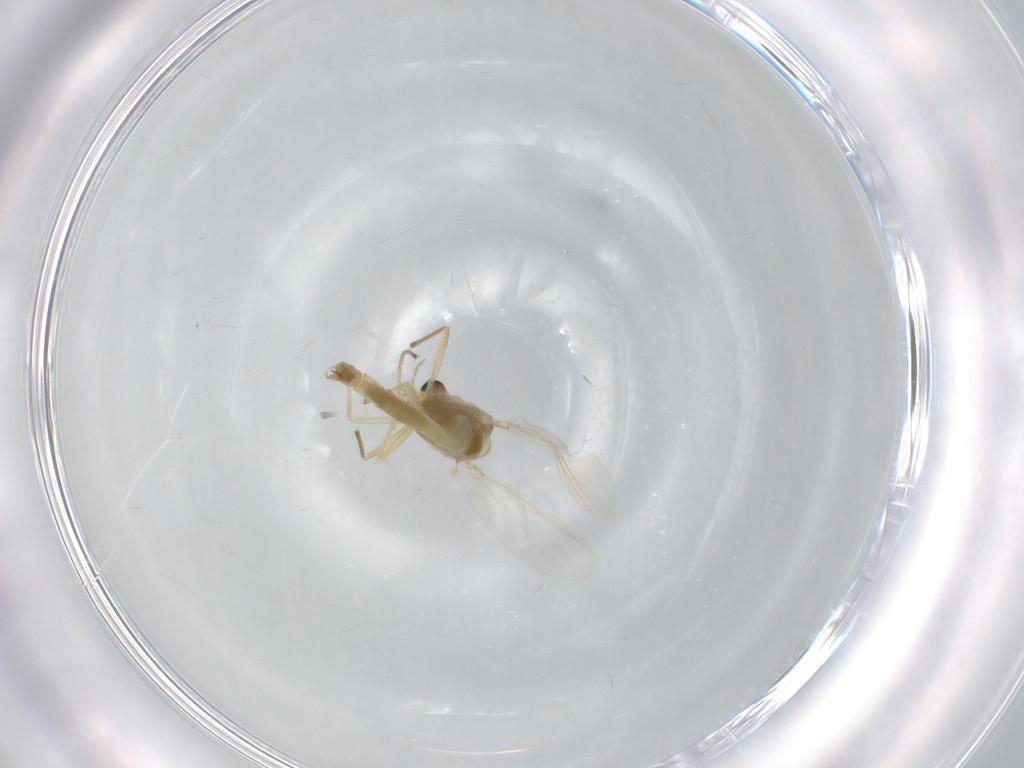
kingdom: Animalia
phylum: Arthropoda
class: Insecta
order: Diptera
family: Chironomidae
